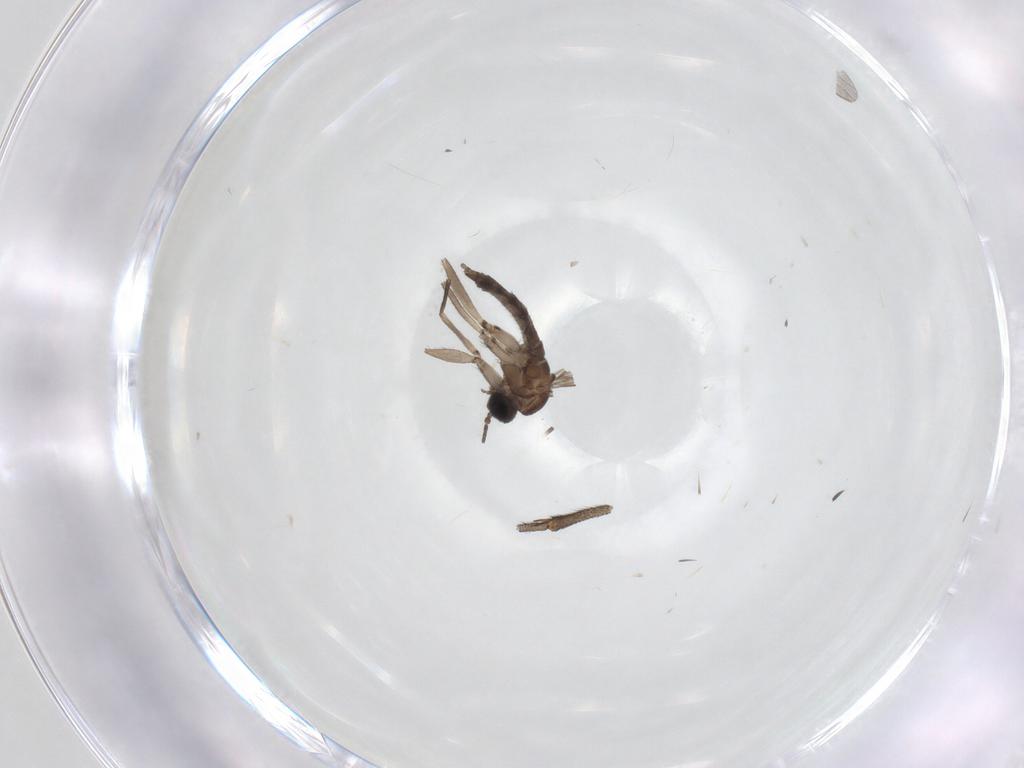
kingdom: Animalia
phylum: Arthropoda
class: Insecta
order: Diptera
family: Sciaridae
